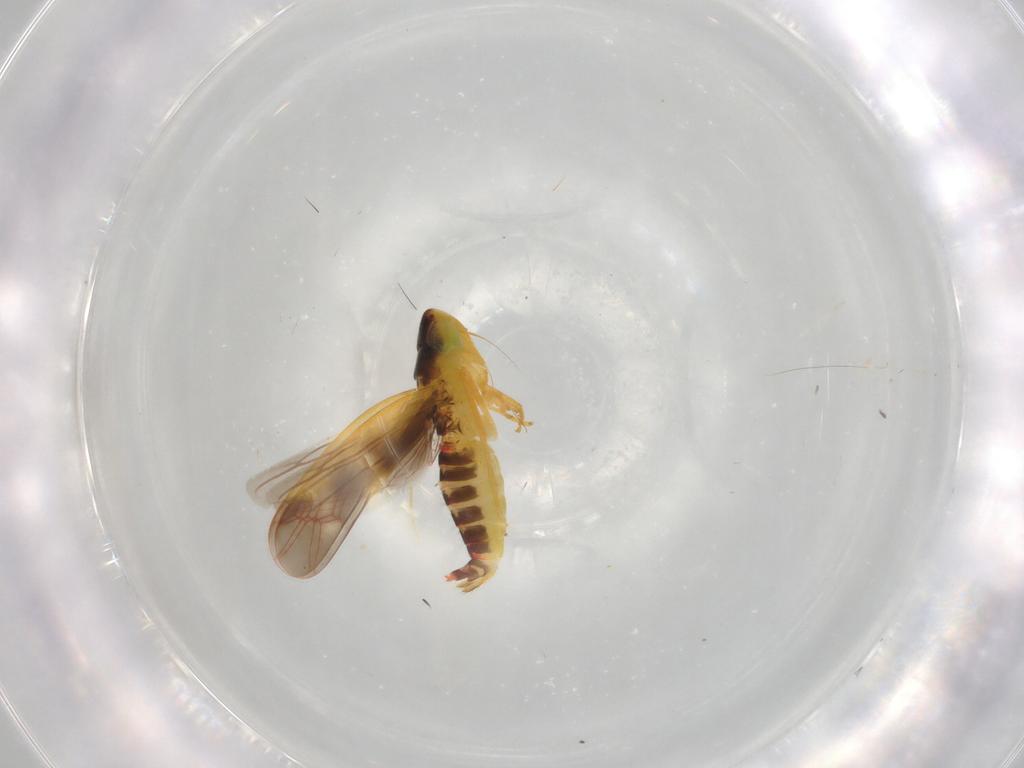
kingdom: Animalia
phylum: Arthropoda
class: Insecta
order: Hemiptera
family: Cicadellidae
